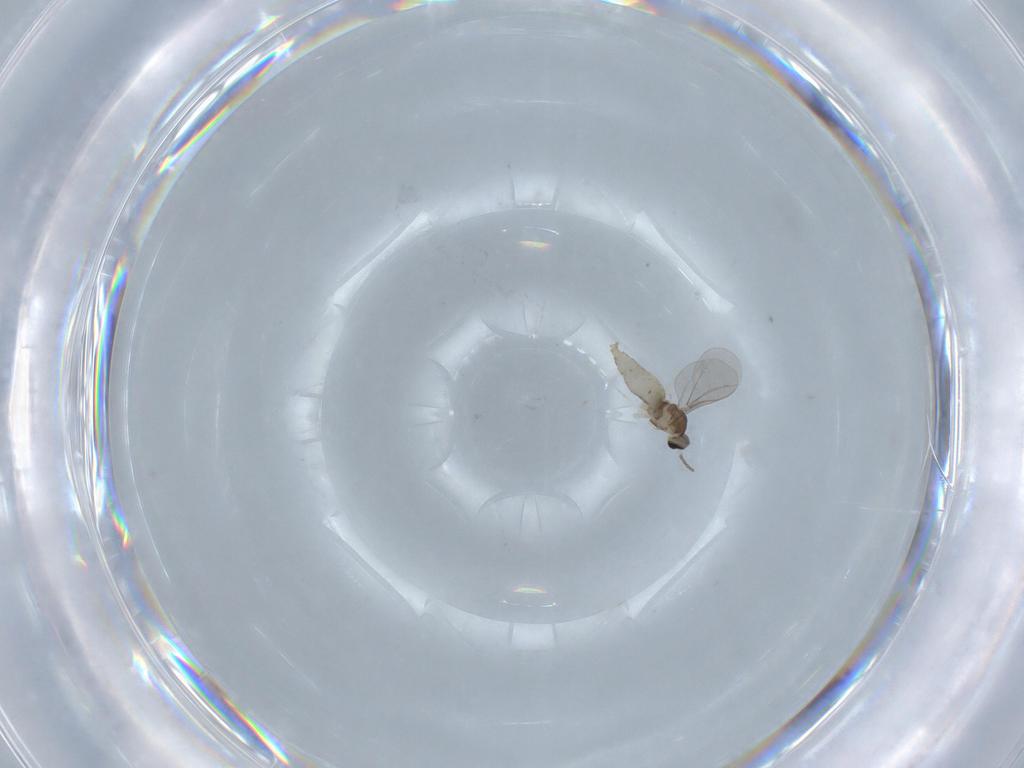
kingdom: Animalia
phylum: Arthropoda
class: Insecta
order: Diptera
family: Cecidomyiidae
